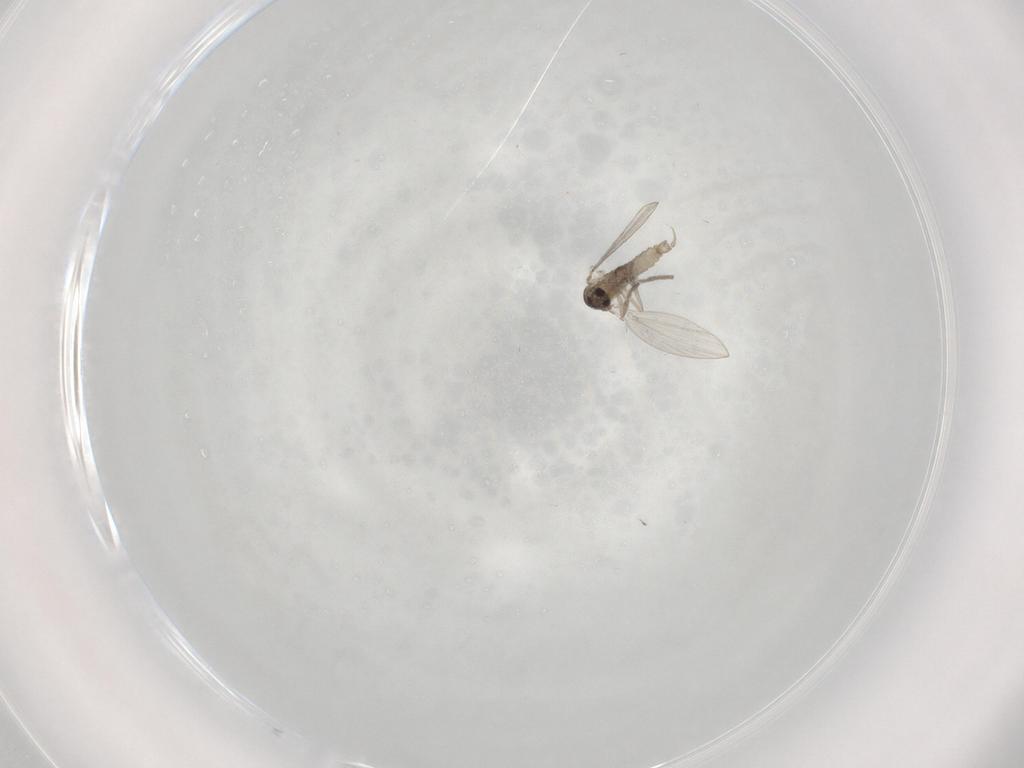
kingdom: Animalia
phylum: Arthropoda
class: Insecta
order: Diptera
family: Psychodidae
